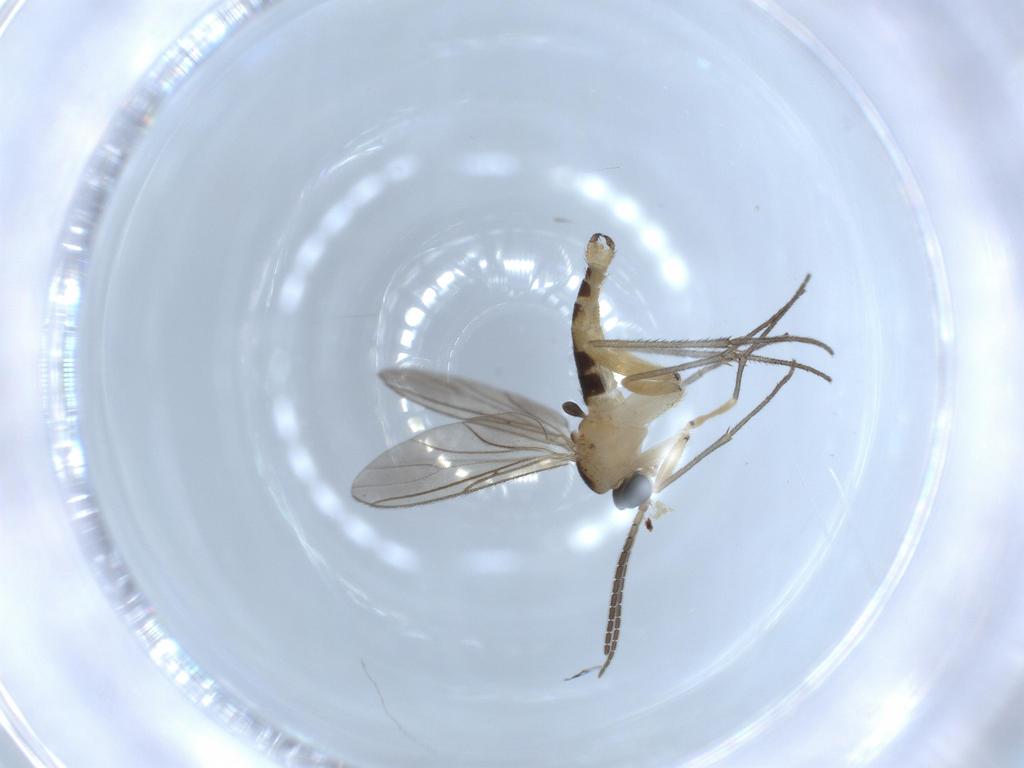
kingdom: Animalia
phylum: Arthropoda
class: Insecta
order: Diptera
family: Sciaridae
